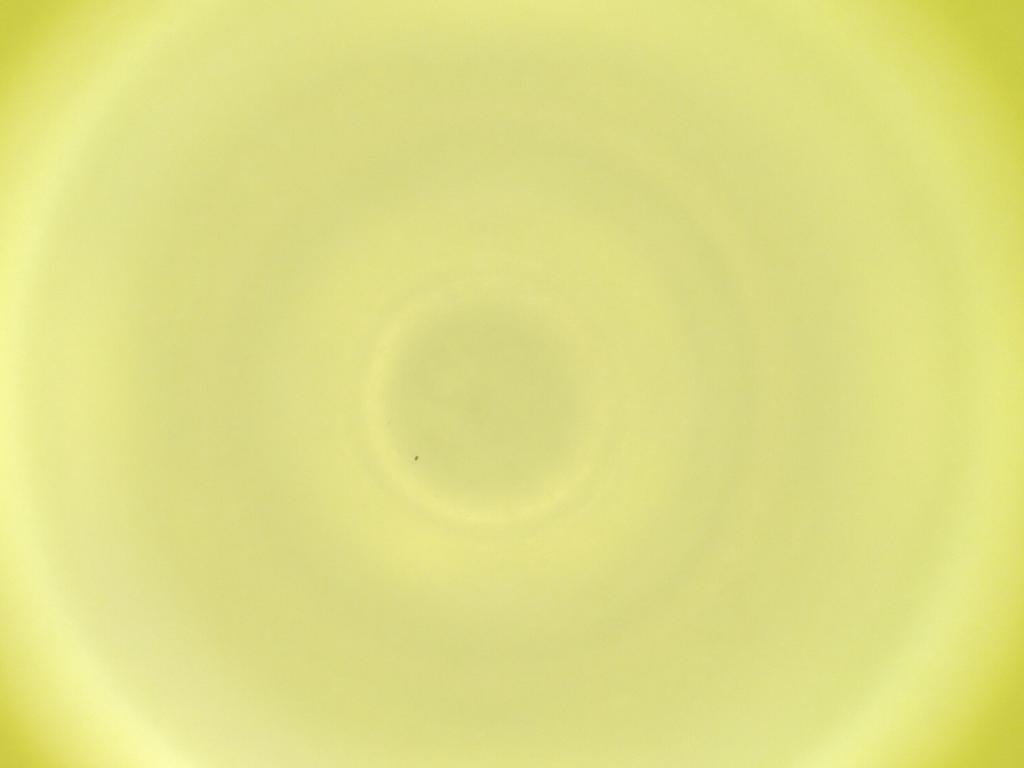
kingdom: Animalia
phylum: Arthropoda
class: Insecta
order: Diptera
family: Cecidomyiidae
